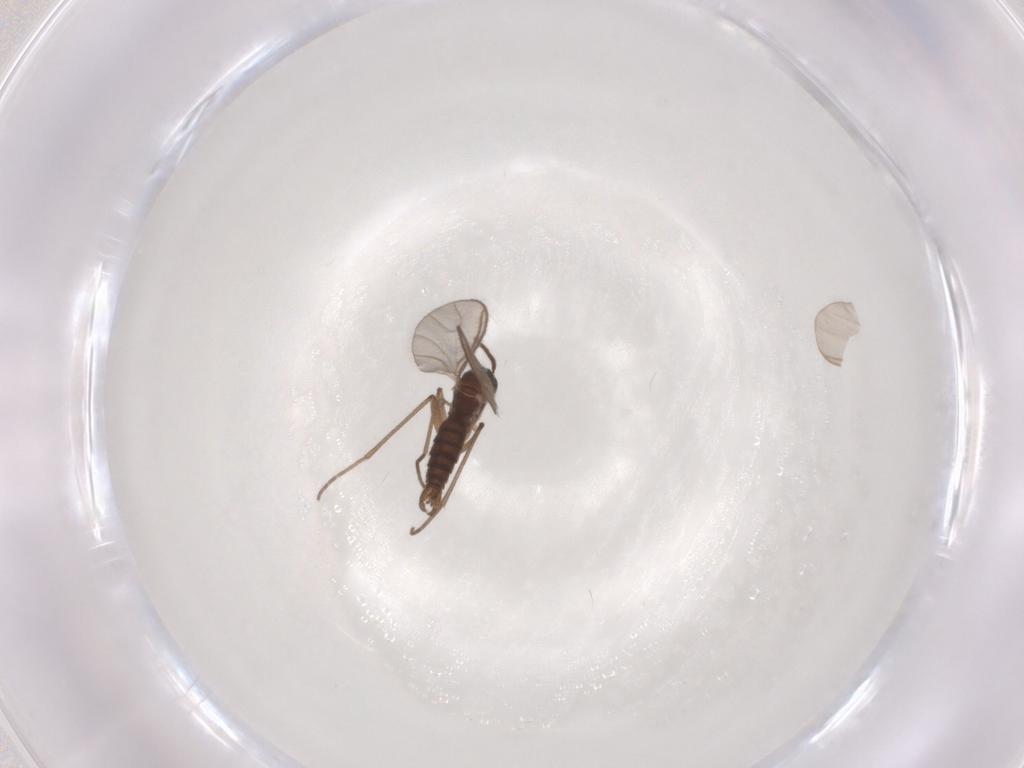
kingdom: Animalia
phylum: Arthropoda
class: Insecta
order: Diptera
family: Sciaridae
